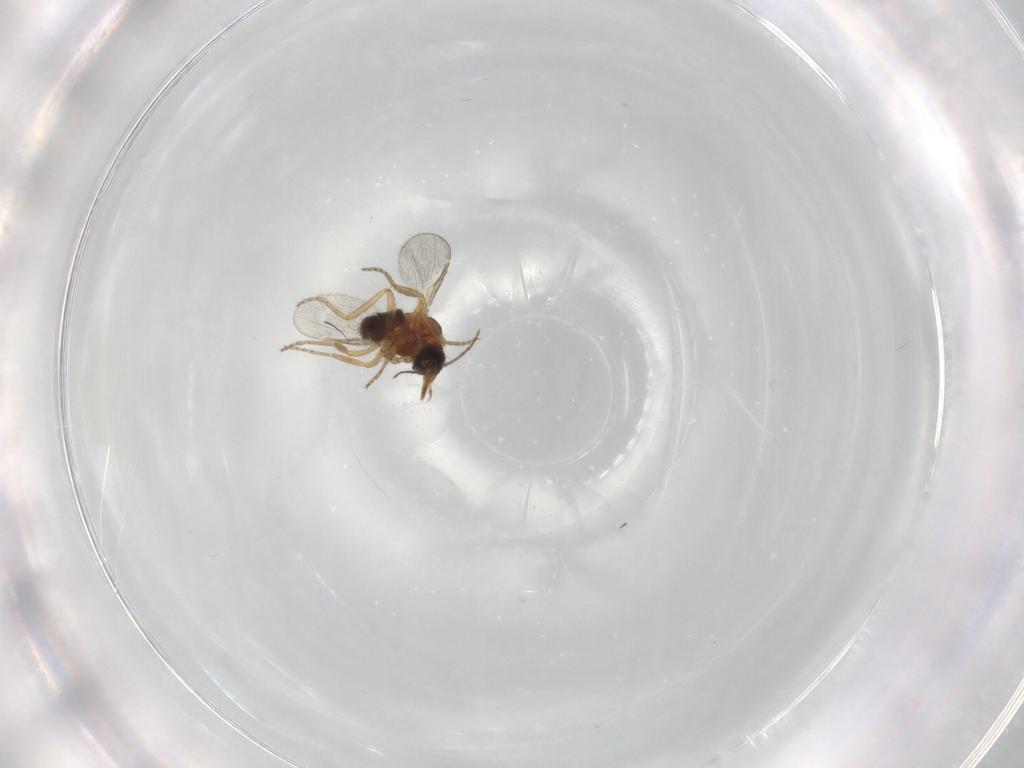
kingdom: Animalia
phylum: Arthropoda
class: Insecta
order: Diptera
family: Ceratopogonidae
